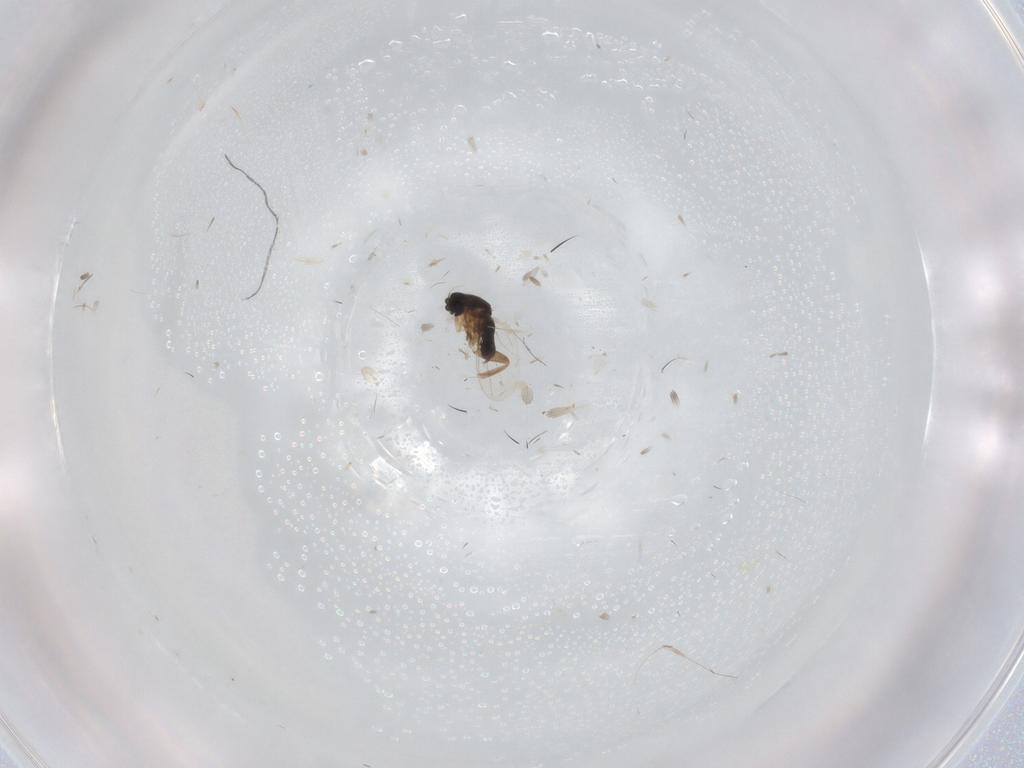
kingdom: Animalia
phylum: Arthropoda
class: Insecta
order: Diptera
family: Phoridae
